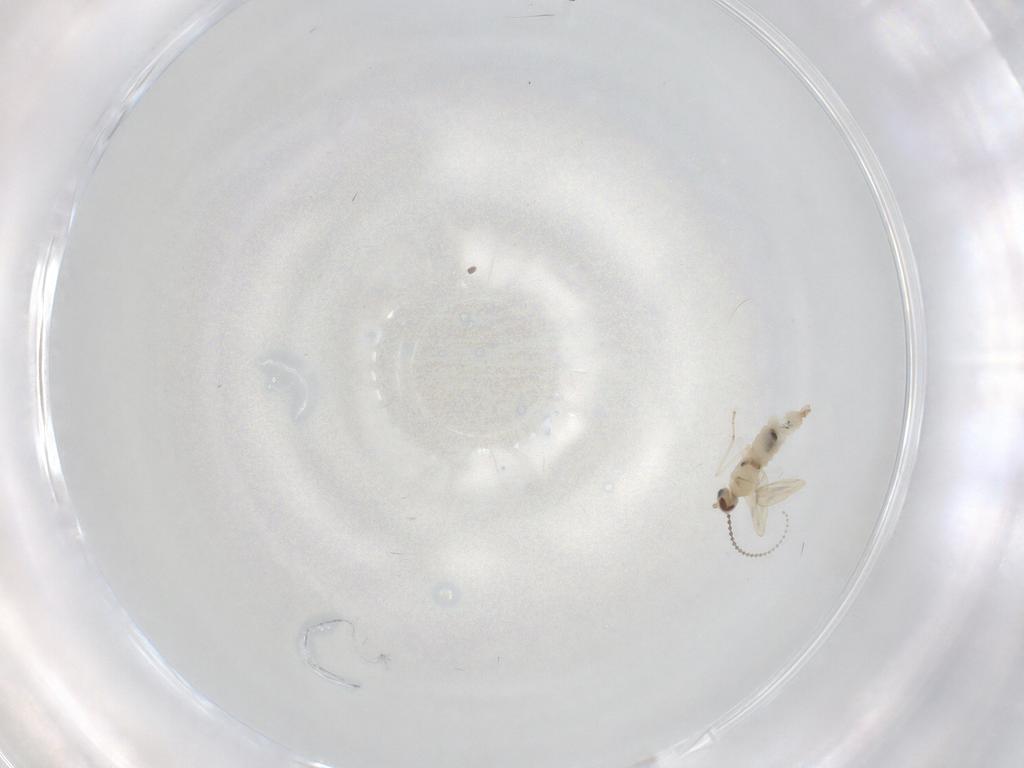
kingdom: Animalia
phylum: Arthropoda
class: Insecta
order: Diptera
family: Cecidomyiidae
